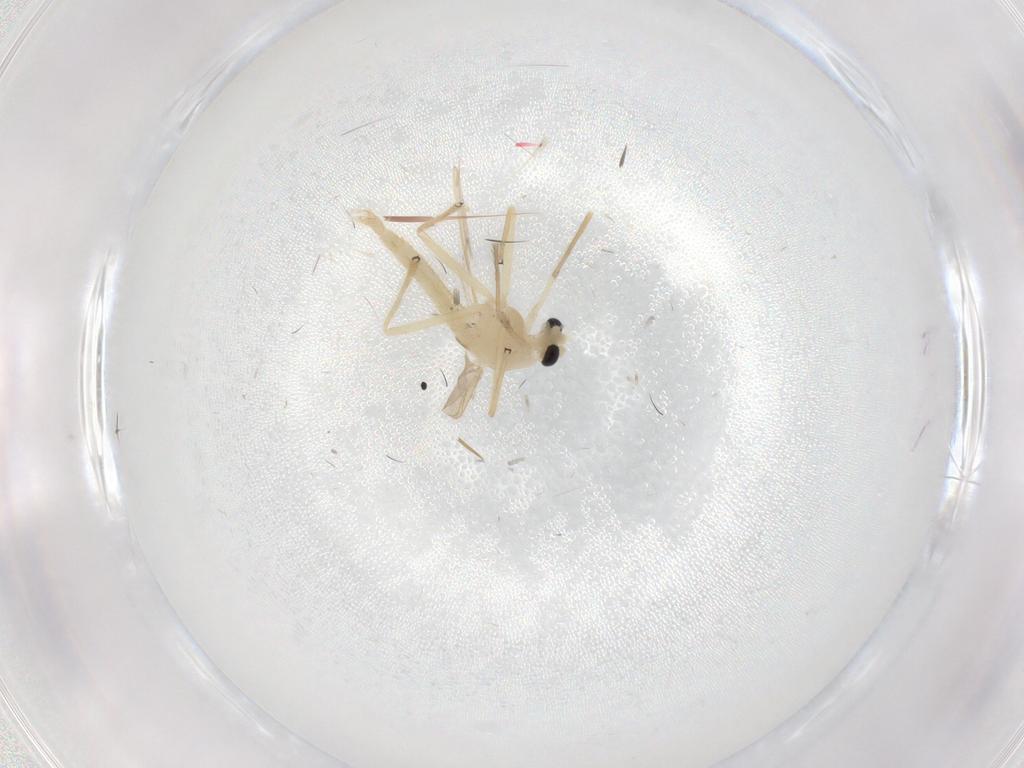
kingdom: Animalia
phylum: Arthropoda
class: Insecta
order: Diptera
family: Chironomidae
